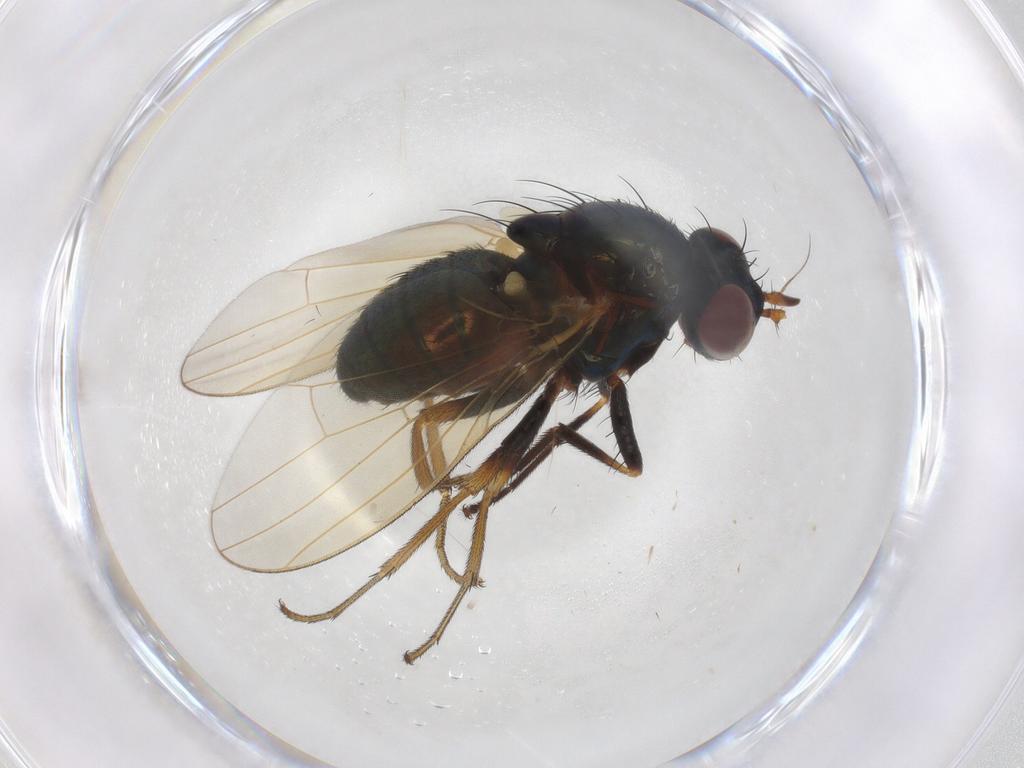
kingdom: Animalia
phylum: Arthropoda
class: Insecta
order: Diptera
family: Lauxaniidae
